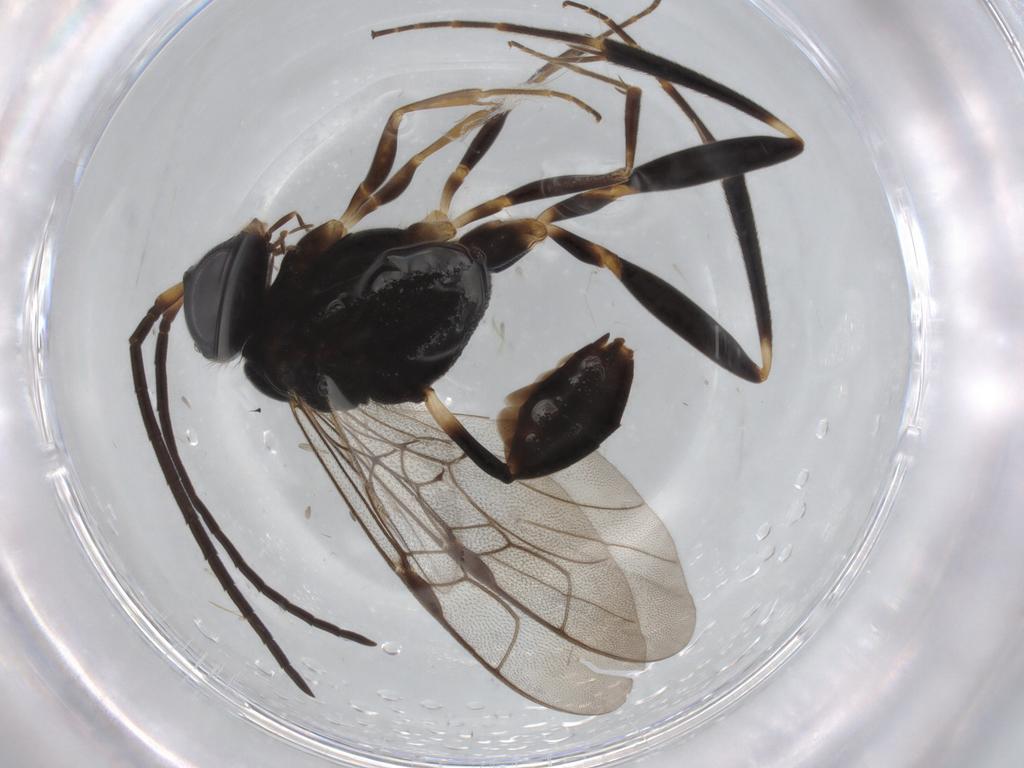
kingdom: Animalia
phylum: Arthropoda
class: Insecta
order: Hymenoptera
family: Evaniidae
